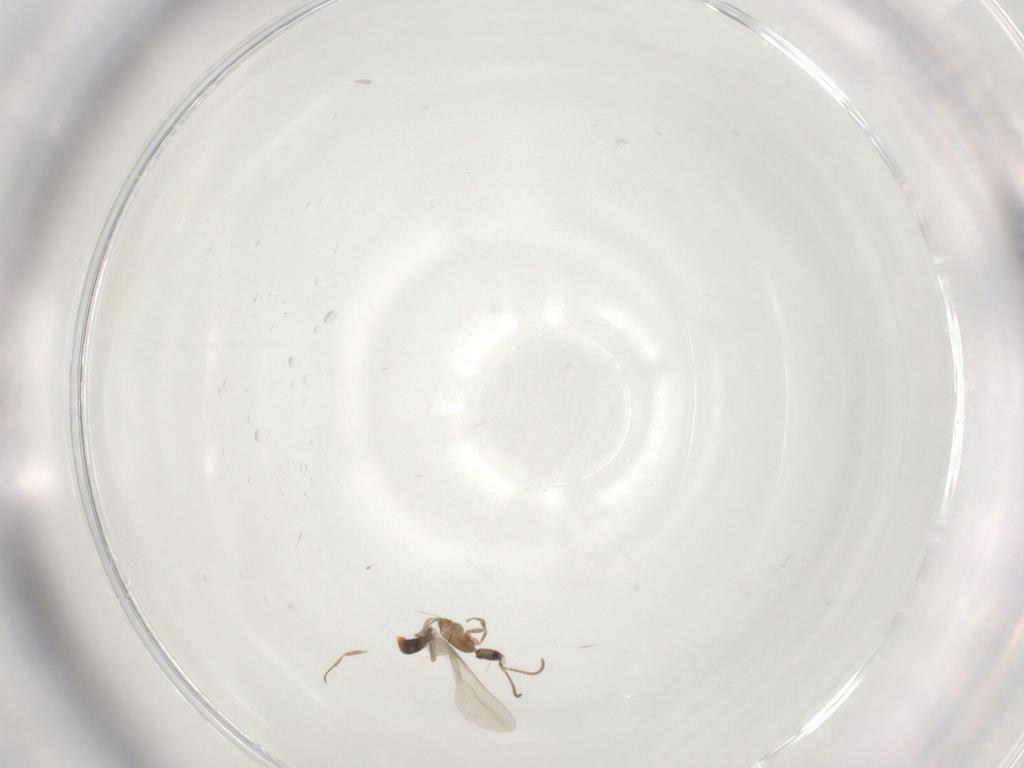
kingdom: Animalia
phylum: Arthropoda
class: Insecta
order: Hymenoptera
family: Formicidae
